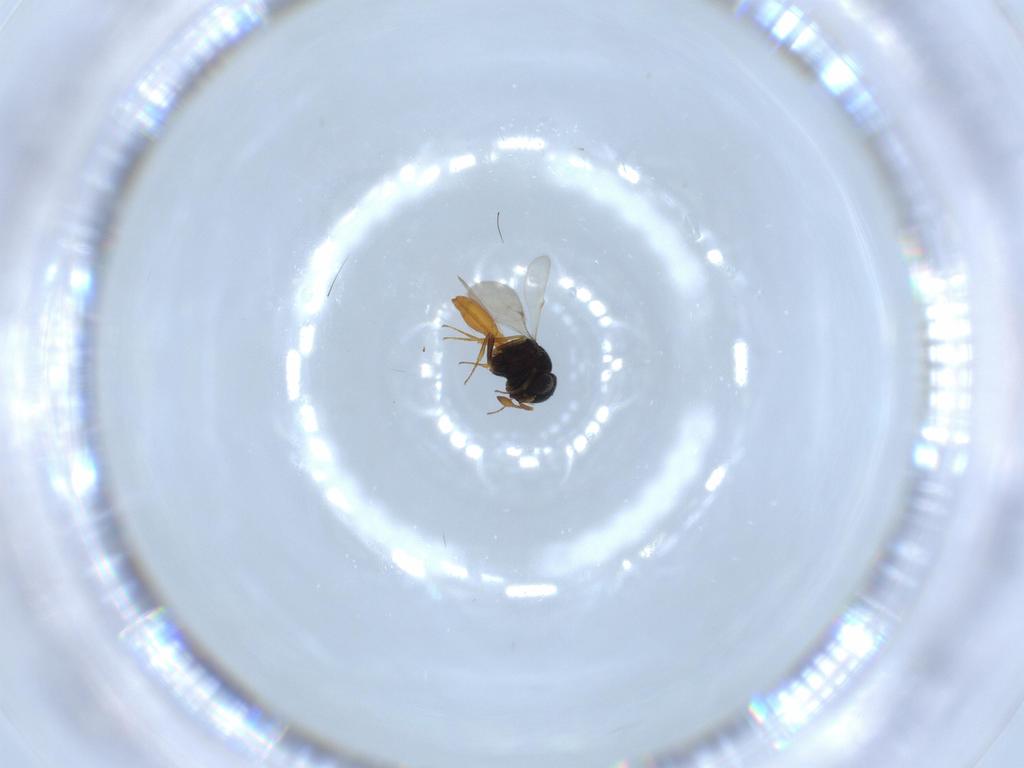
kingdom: Animalia
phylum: Arthropoda
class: Insecta
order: Hymenoptera
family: Scelionidae
